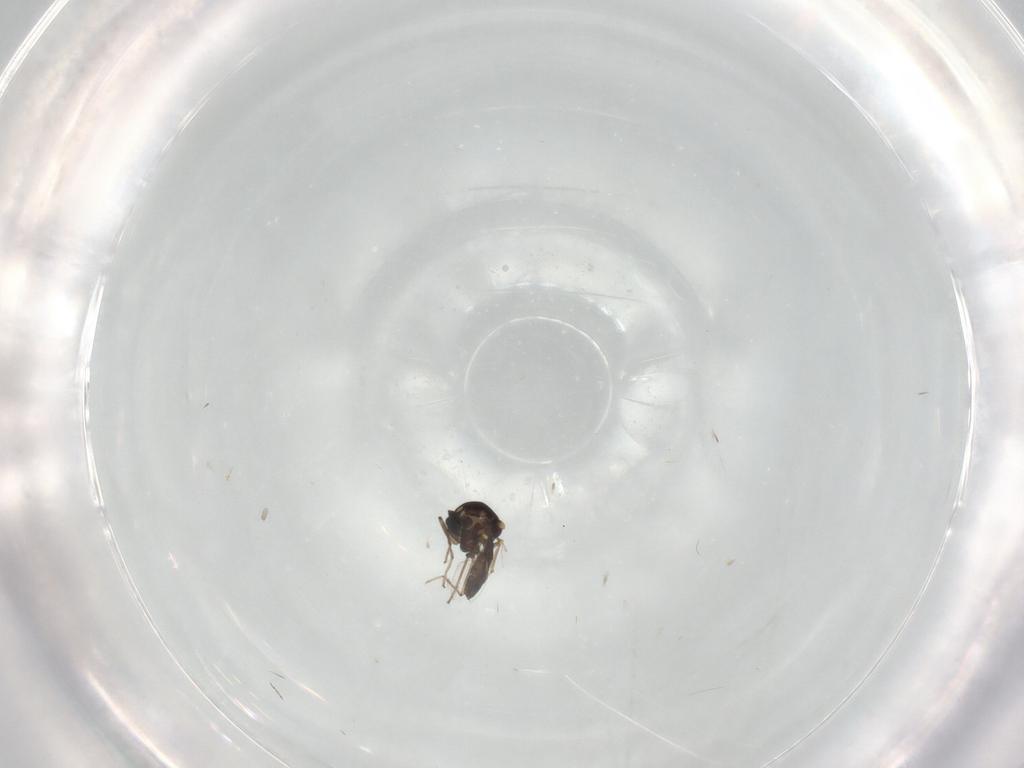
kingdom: Animalia
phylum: Arthropoda
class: Insecta
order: Diptera
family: Ceratopogonidae
